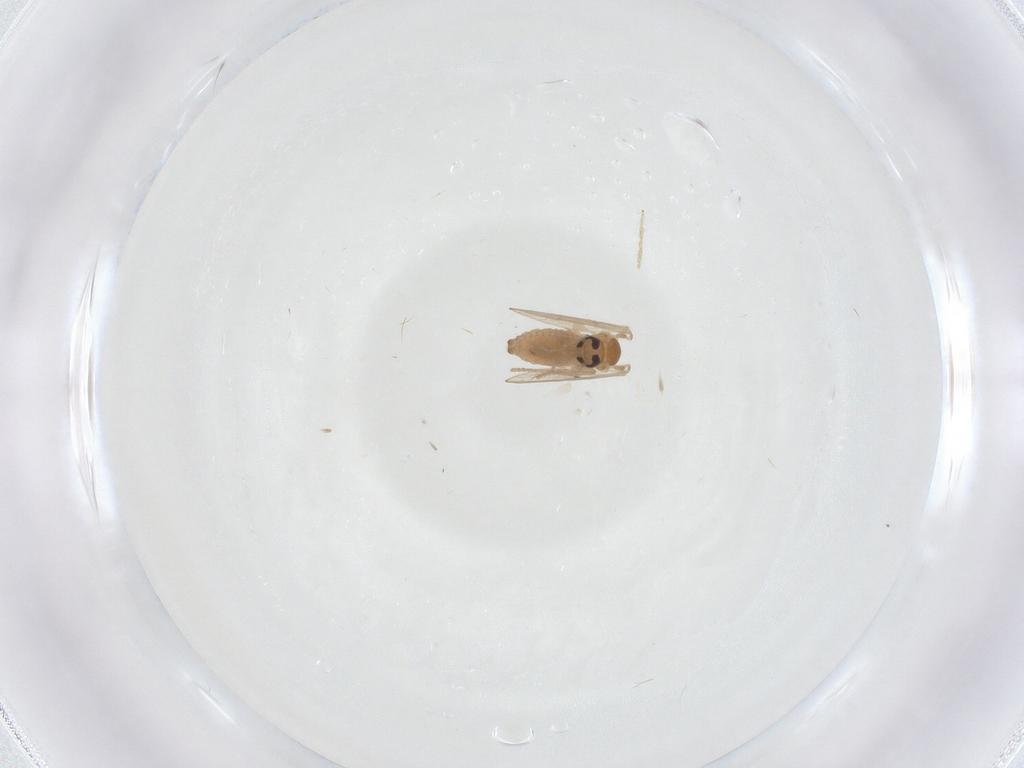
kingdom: Animalia
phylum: Arthropoda
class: Insecta
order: Diptera
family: Psychodidae
